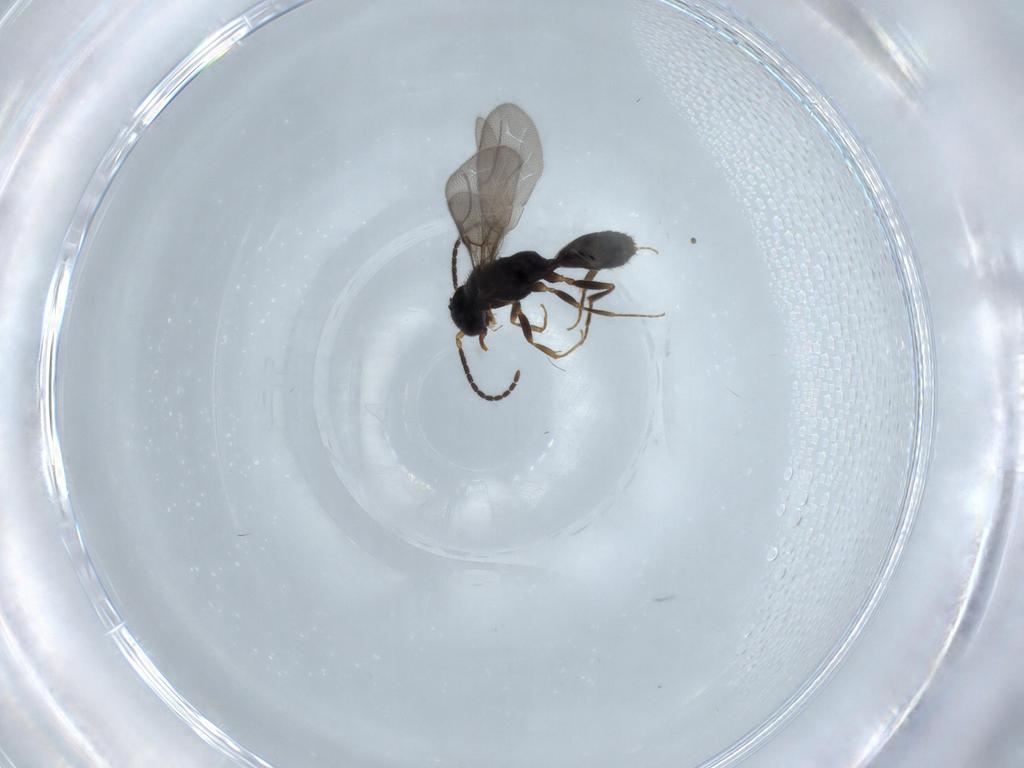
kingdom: Animalia
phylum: Arthropoda
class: Insecta
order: Hymenoptera
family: Bethylidae
